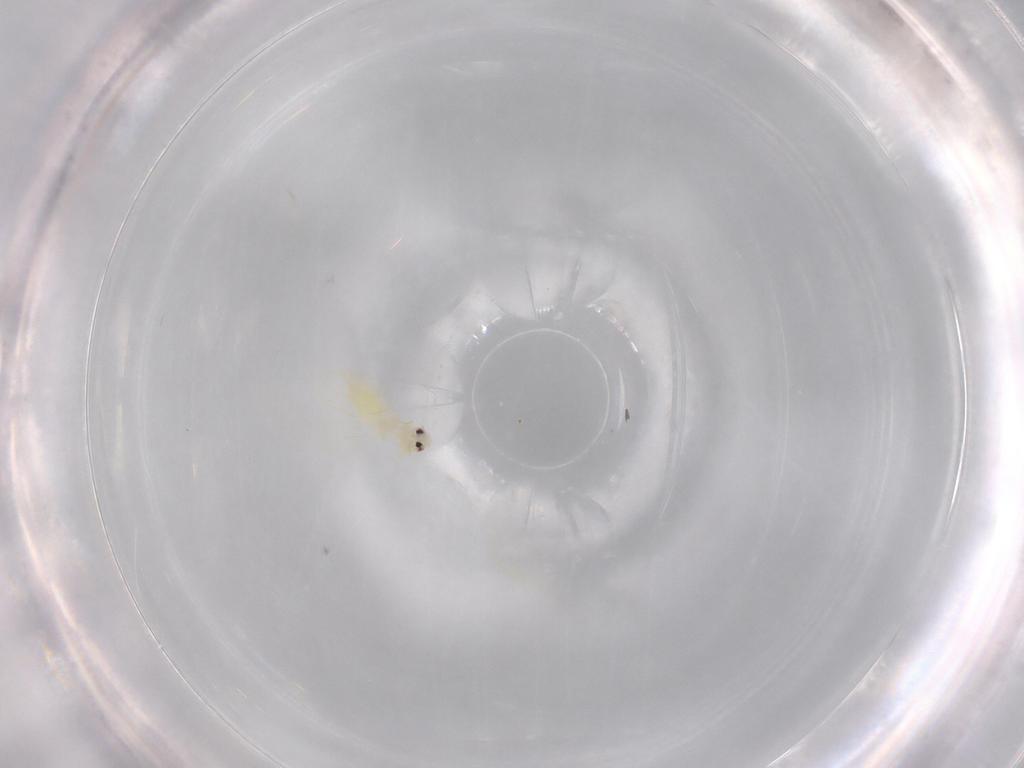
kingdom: Animalia
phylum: Arthropoda
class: Insecta
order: Hemiptera
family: Aleyrodidae
